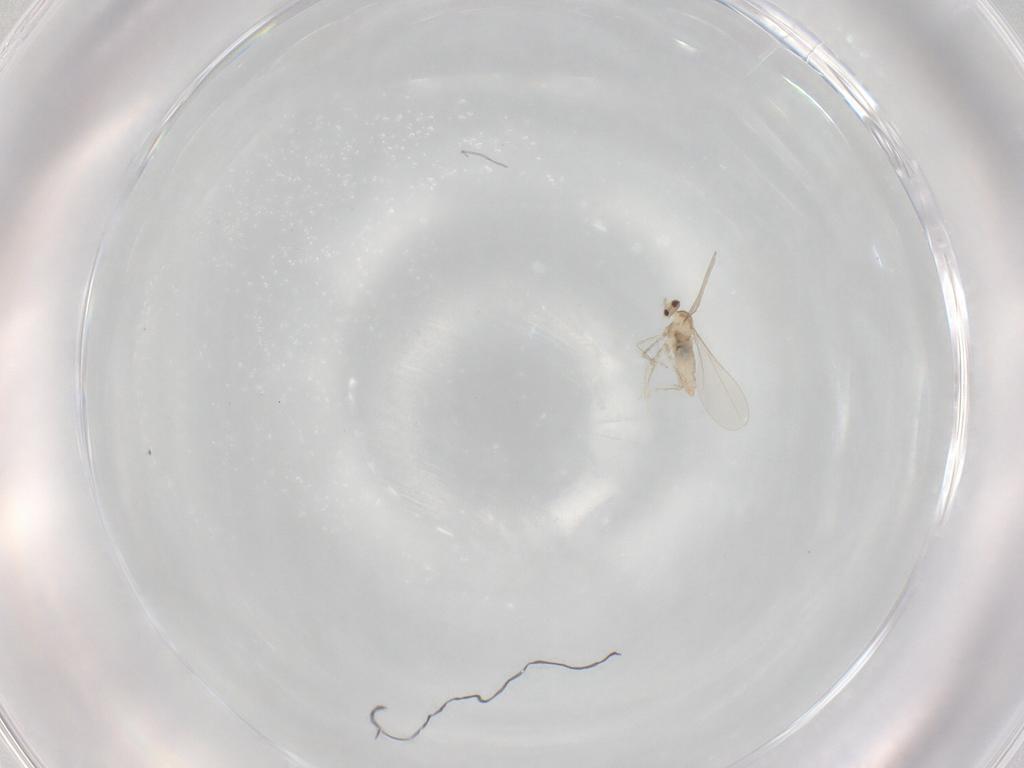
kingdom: Animalia
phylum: Arthropoda
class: Insecta
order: Diptera
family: Cecidomyiidae
